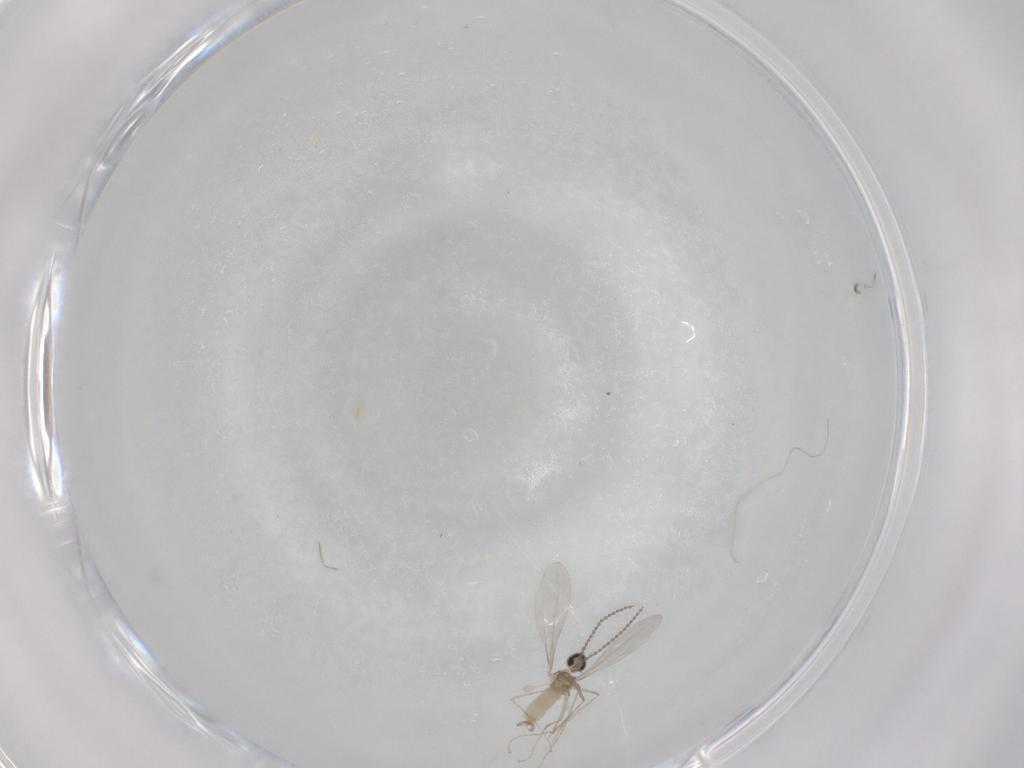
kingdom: Animalia
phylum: Arthropoda
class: Insecta
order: Diptera
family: Cecidomyiidae
